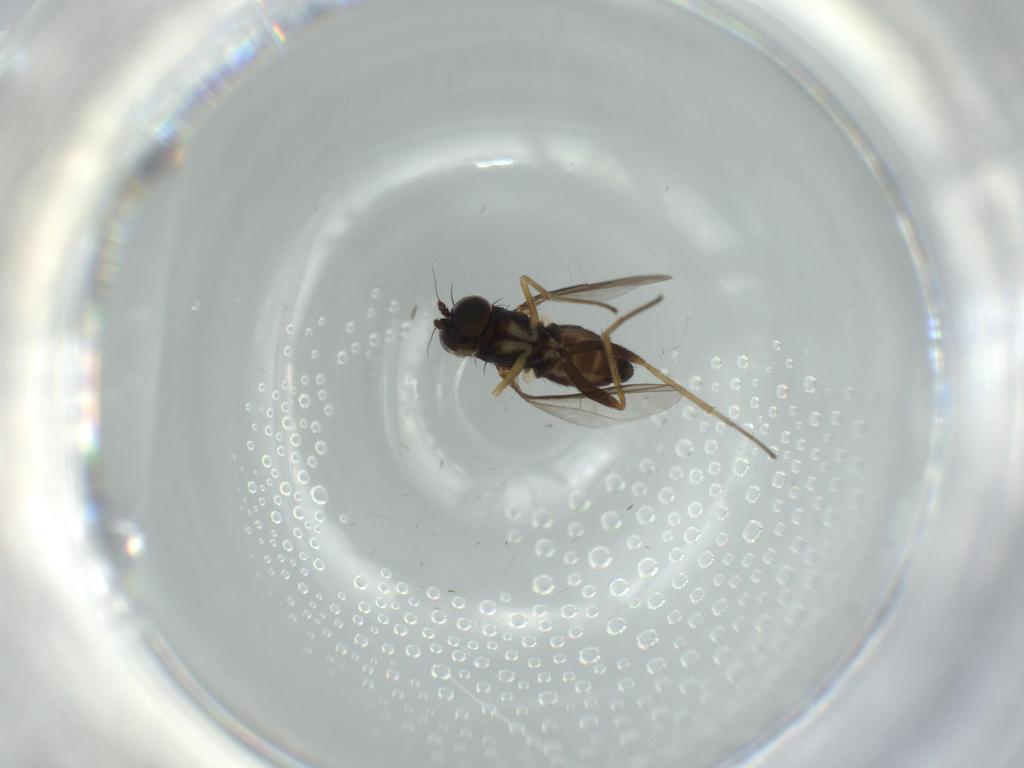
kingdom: Animalia
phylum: Arthropoda
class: Insecta
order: Diptera
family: Dolichopodidae
